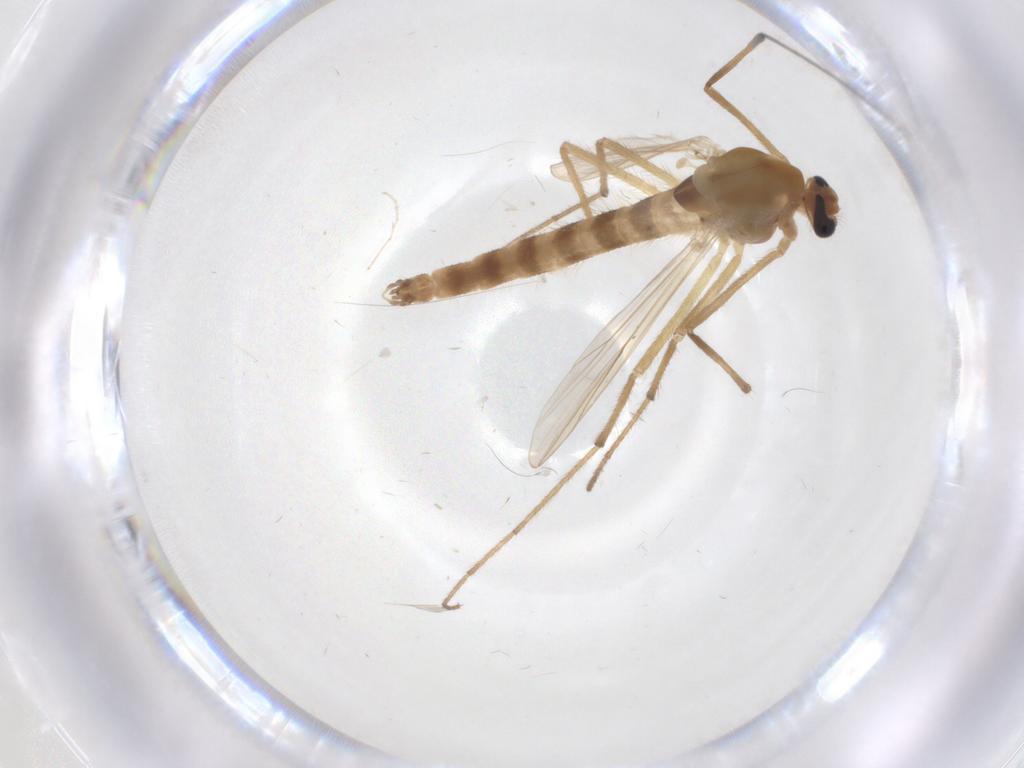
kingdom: Animalia
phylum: Arthropoda
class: Insecta
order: Diptera
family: Chironomidae
